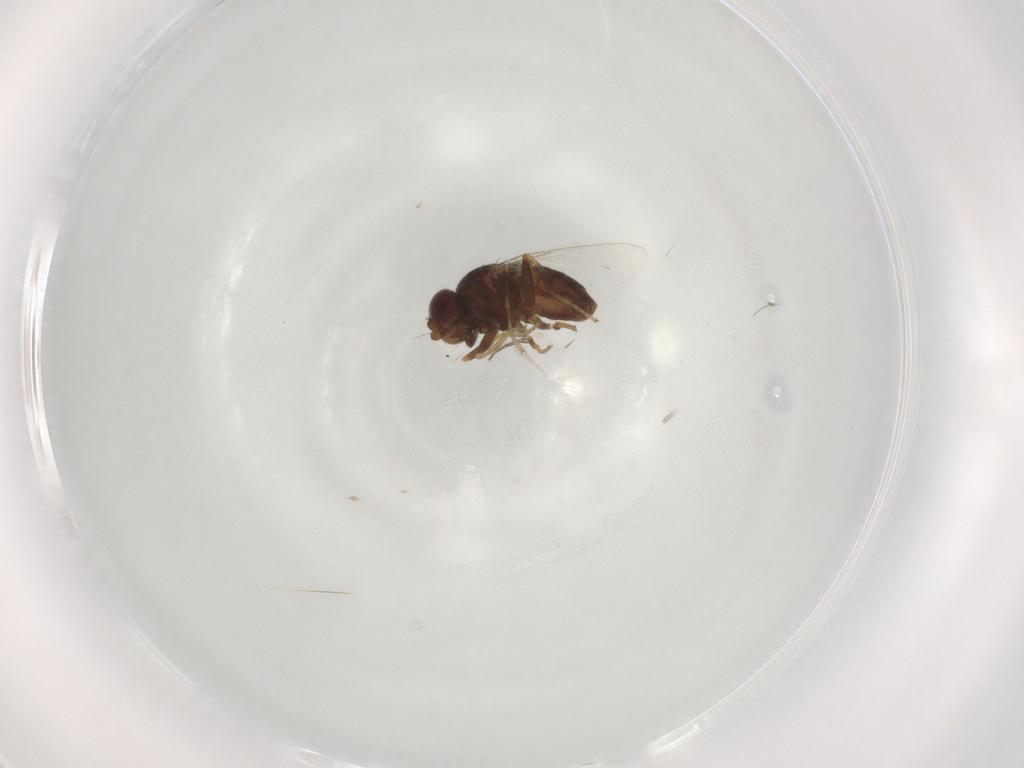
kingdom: Animalia
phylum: Arthropoda
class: Insecta
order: Diptera
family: Chloropidae
